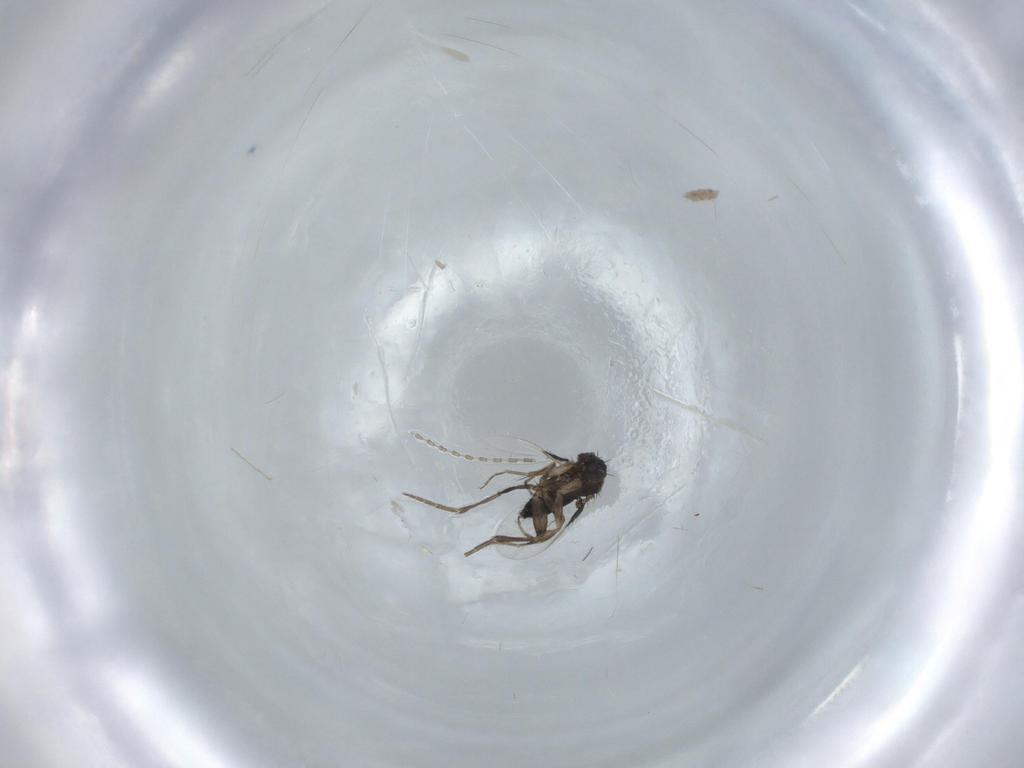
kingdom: Animalia
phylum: Arthropoda
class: Insecta
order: Diptera
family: Phoridae
